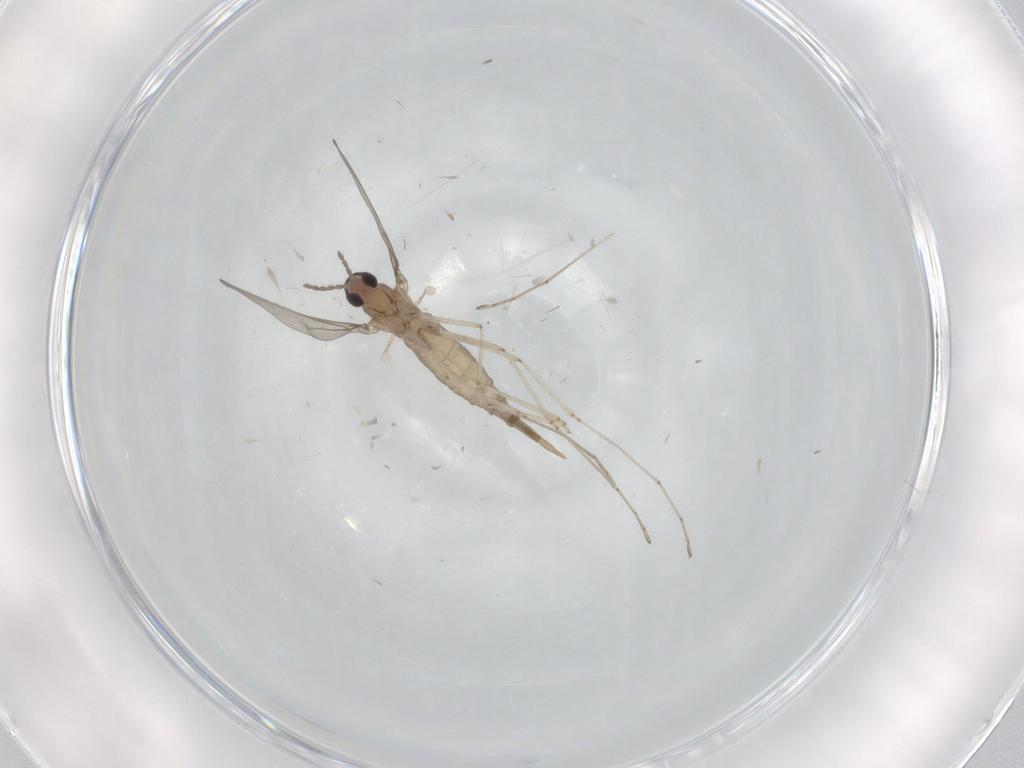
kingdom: Animalia
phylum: Arthropoda
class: Insecta
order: Diptera
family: Cecidomyiidae
